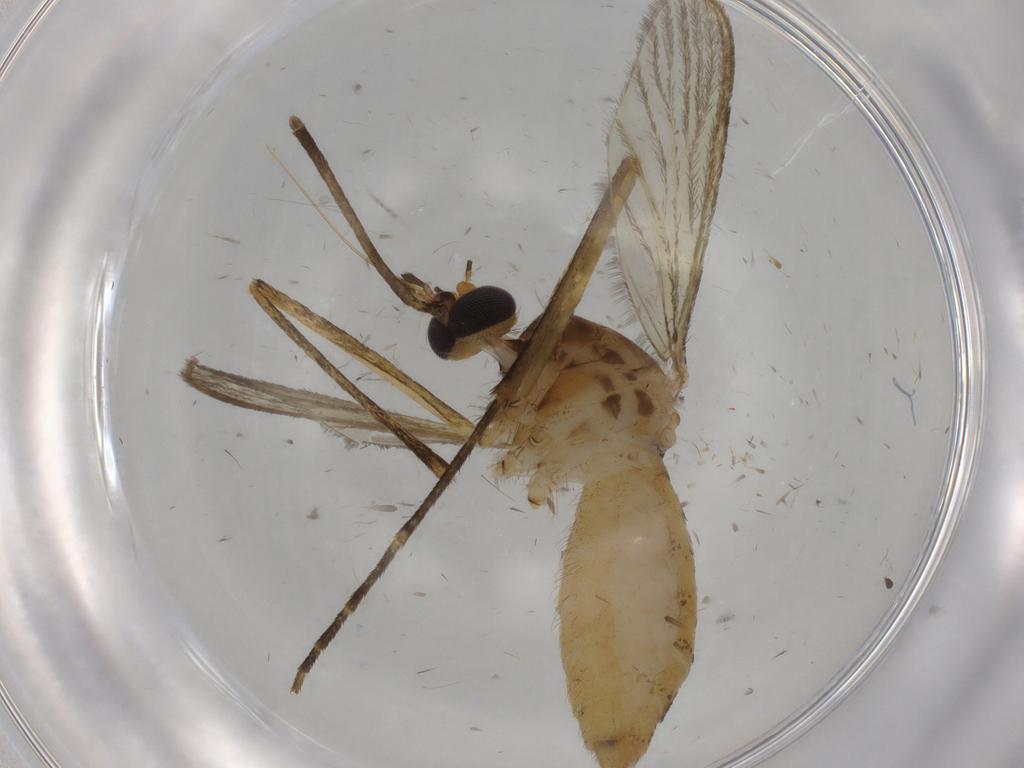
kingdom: Animalia
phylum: Arthropoda
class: Insecta
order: Diptera
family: Culicidae
